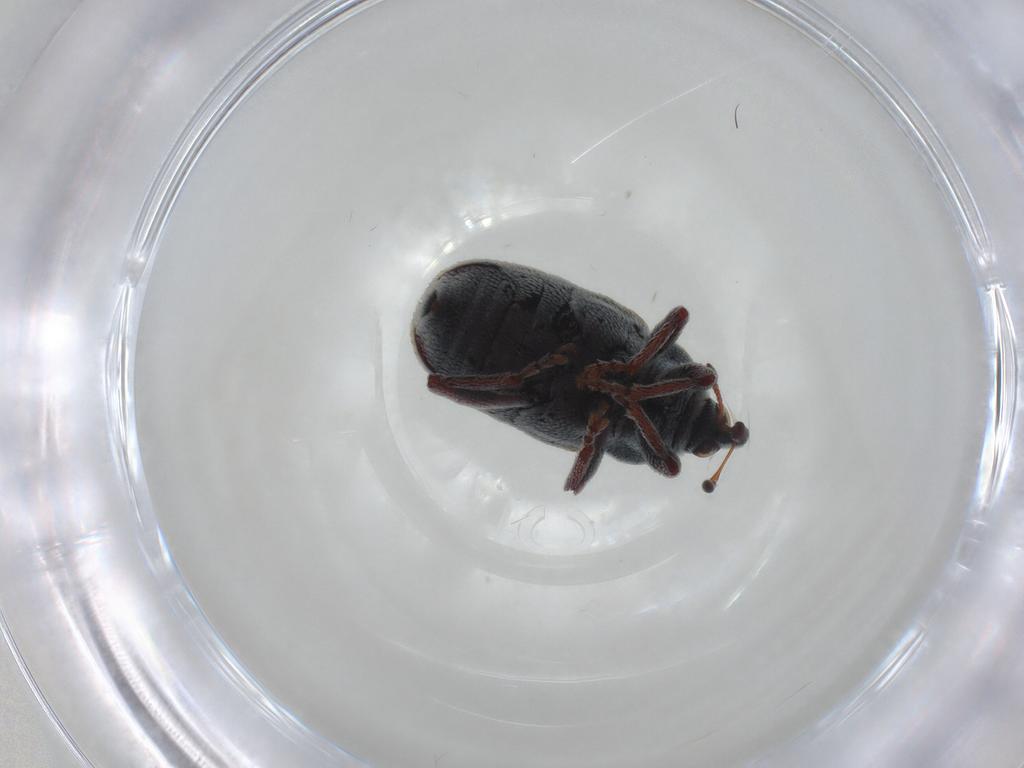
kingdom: Animalia
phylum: Arthropoda
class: Insecta
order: Coleoptera
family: Curculionidae
